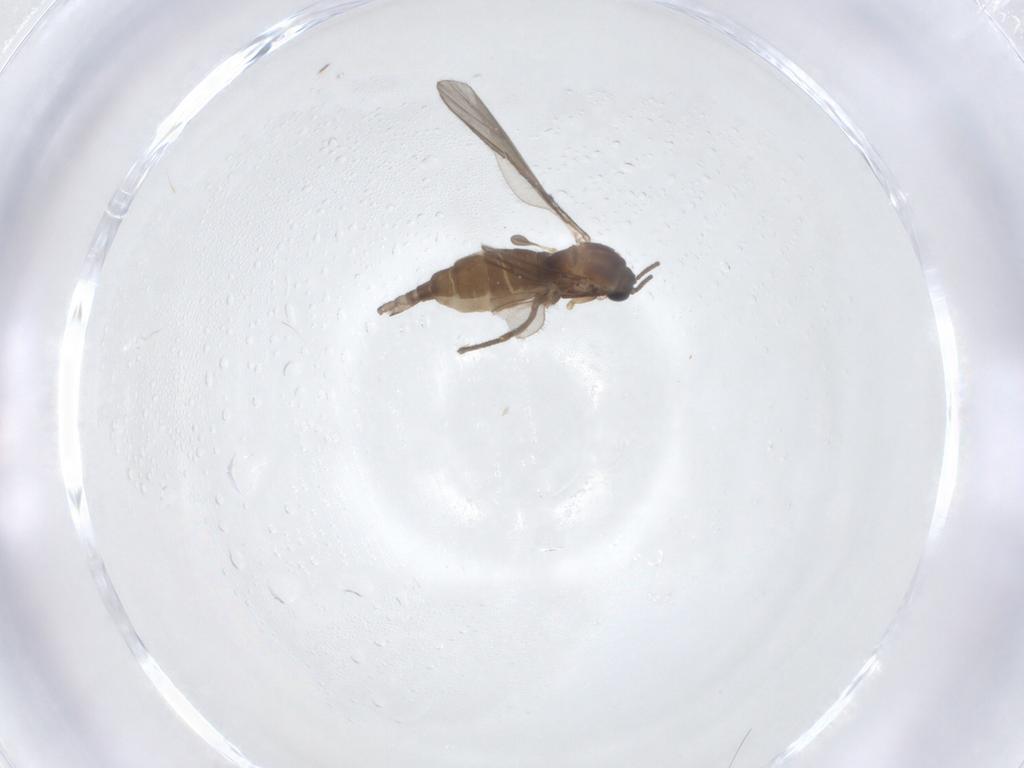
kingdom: Animalia
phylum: Arthropoda
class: Insecta
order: Diptera
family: Sciaridae
